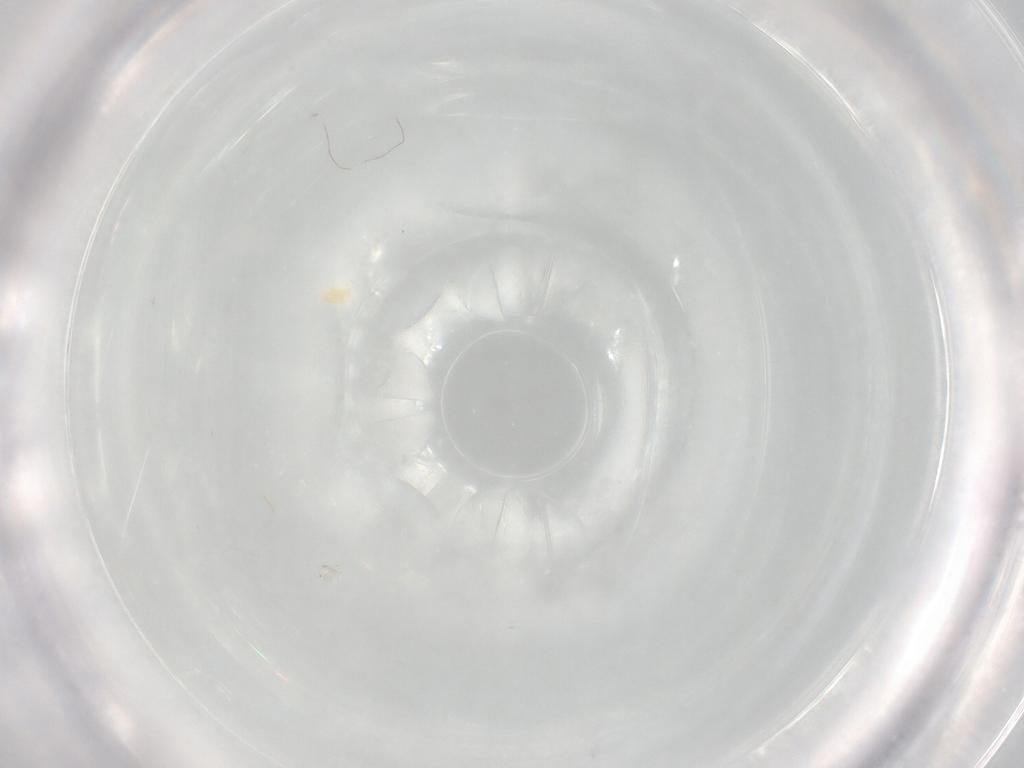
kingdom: Animalia
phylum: Arthropoda
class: Arachnida
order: Trombidiformes
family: Eupodidae
